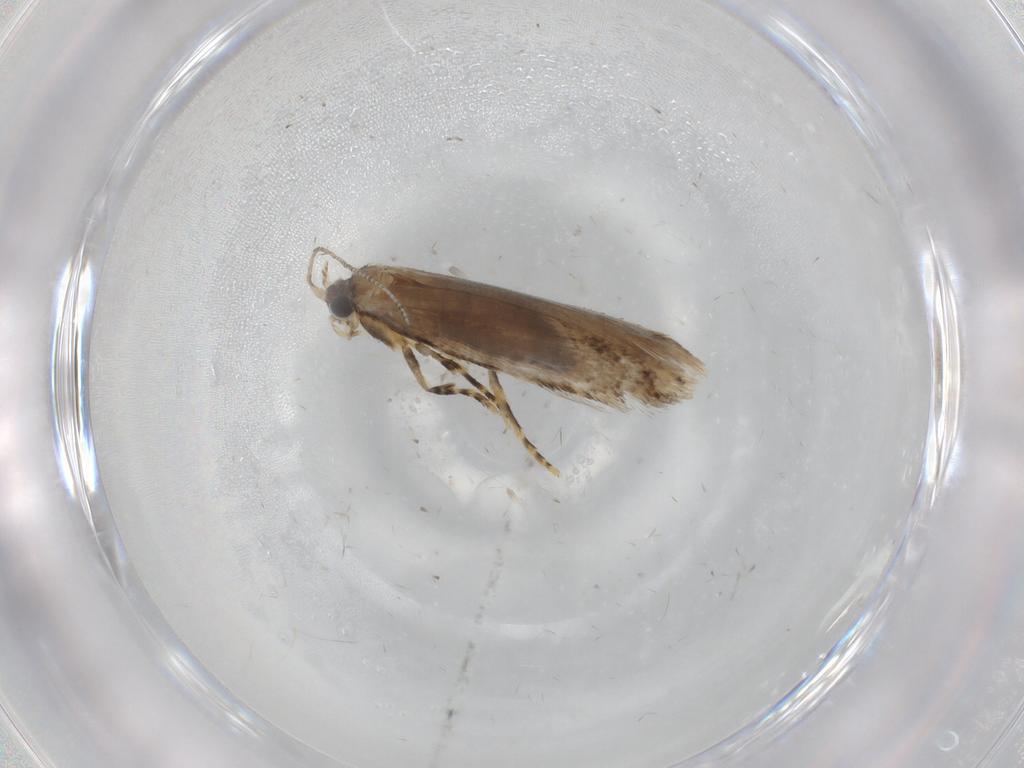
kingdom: Animalia
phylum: Arthropoda
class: Insecta
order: Lepidoptera
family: Tineidae
